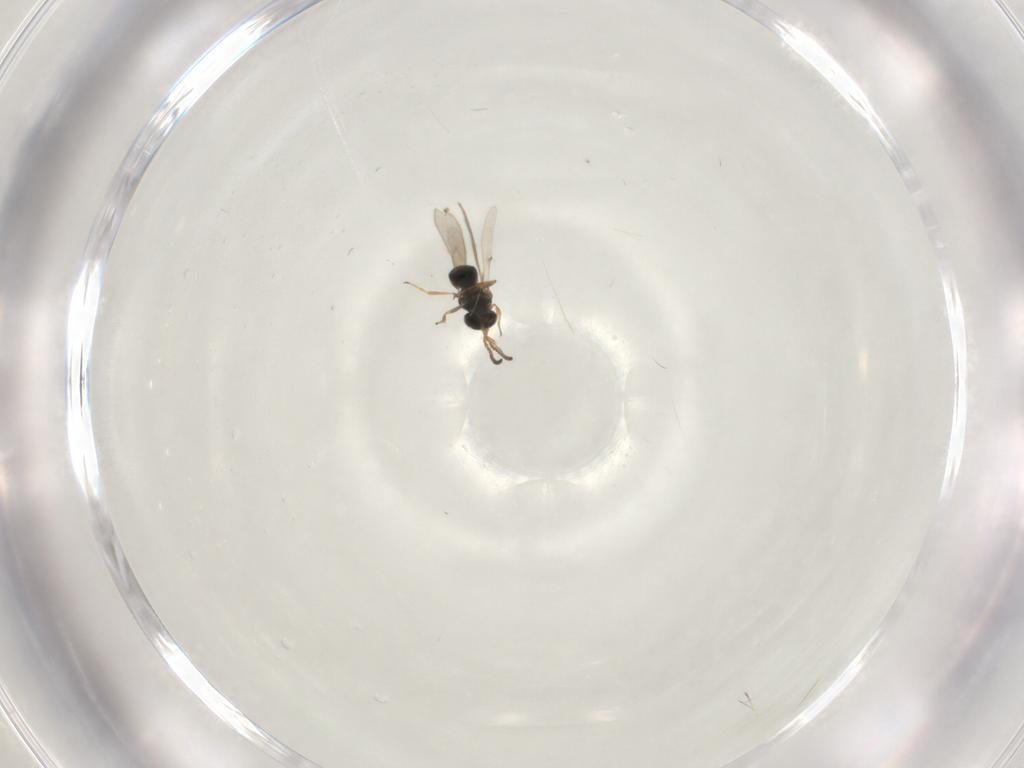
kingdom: Animalia
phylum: Arthropoda
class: Insecta
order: Hymenoptera
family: Scelionidae
